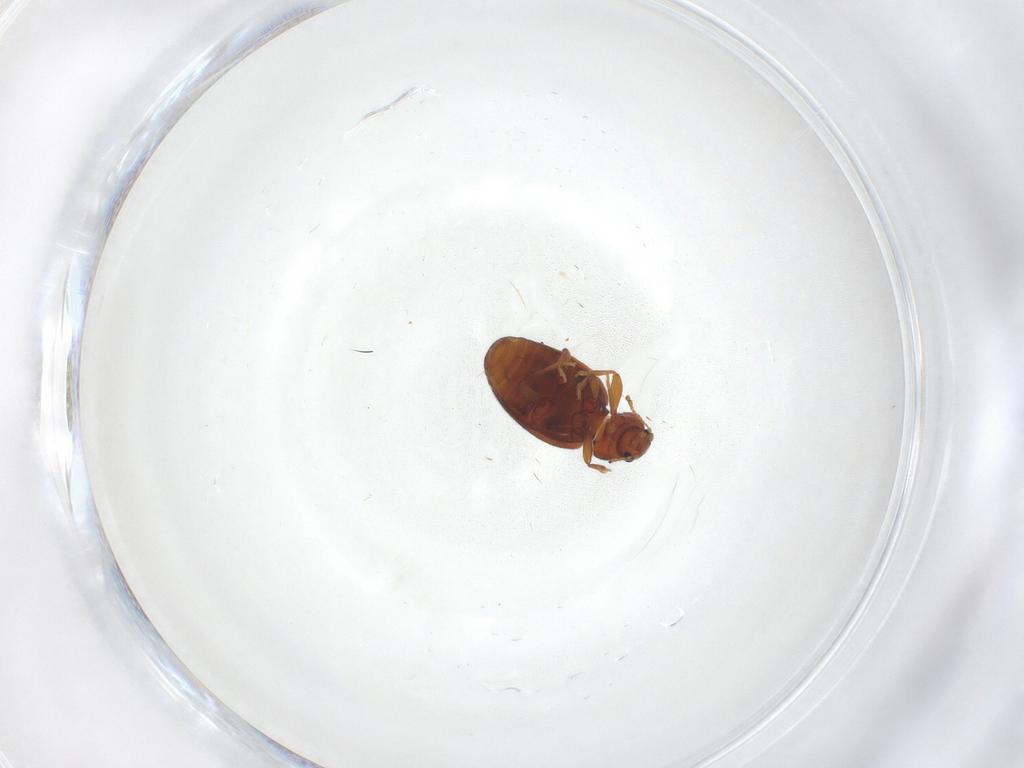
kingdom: Animalia
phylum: Arthropoda
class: Insecta
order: Coleoptera
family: Latridiidae
